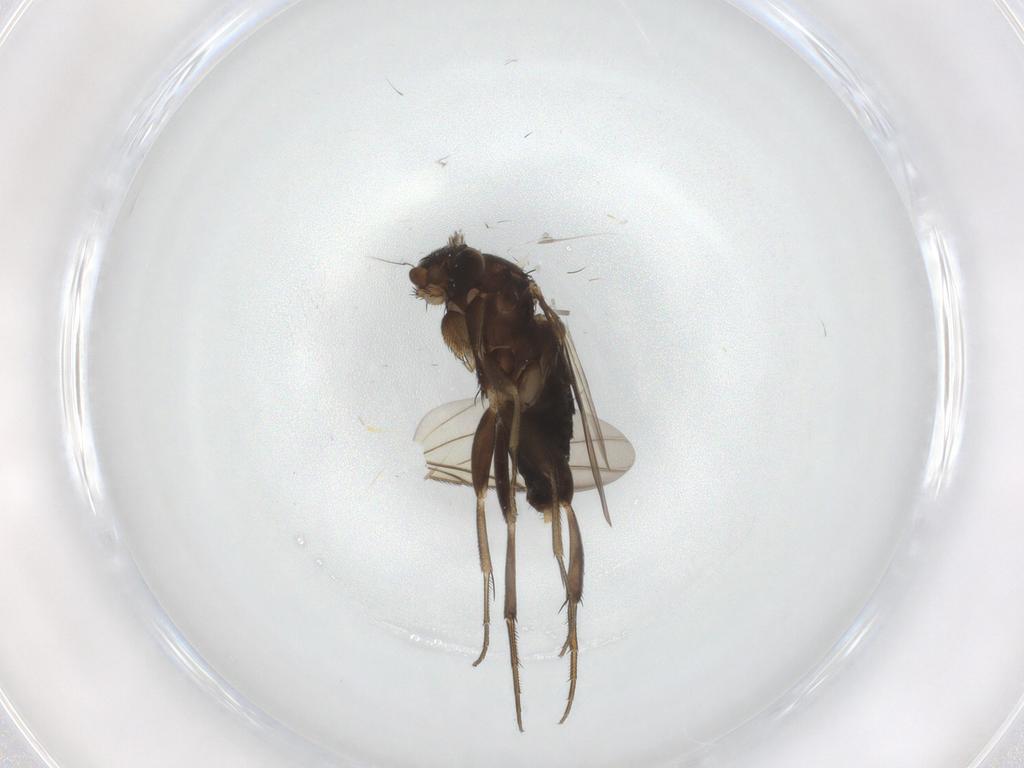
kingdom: Animalia
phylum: Arthropoda
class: Insecta
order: Diptera
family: Phoridae
